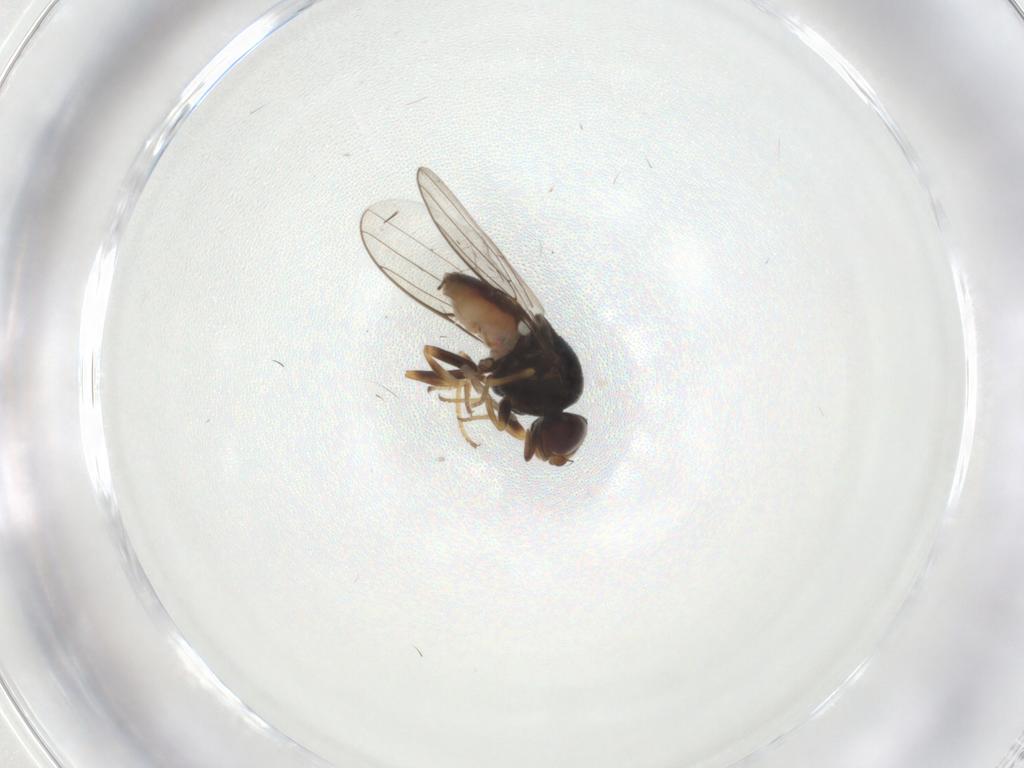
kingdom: Animalia
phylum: Arthropoda
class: Insecta
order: Diptera
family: Chloropidae
